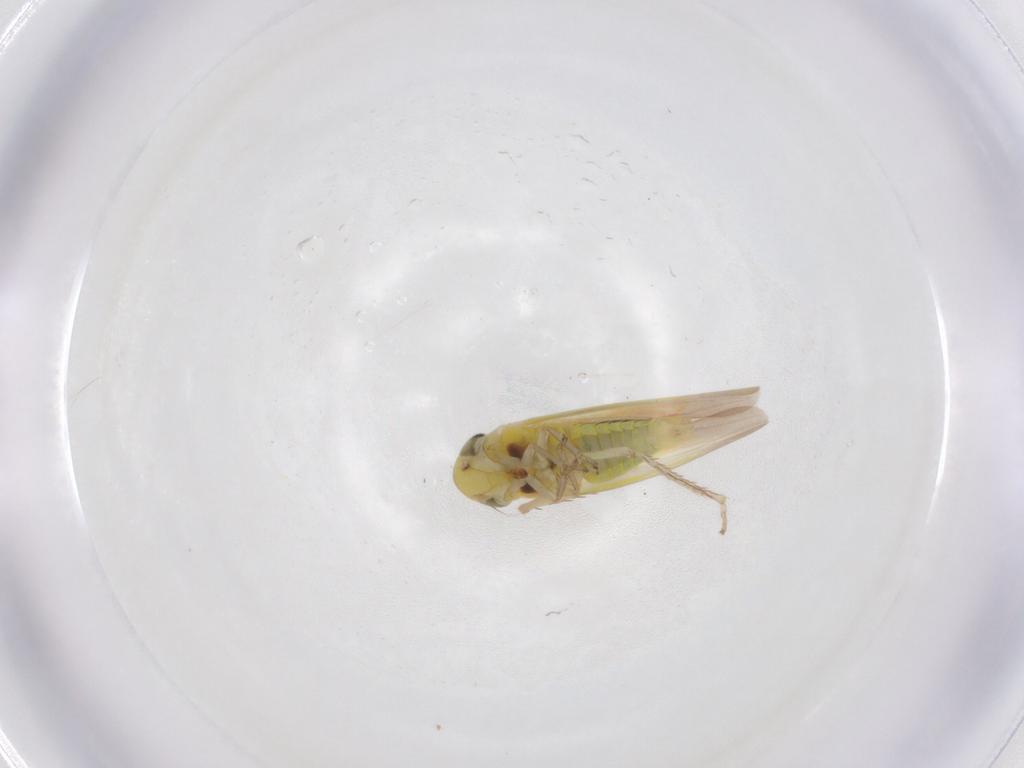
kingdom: Animalia
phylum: Arthropoda
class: Insecta
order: Hemiptera
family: Cicadellidae
